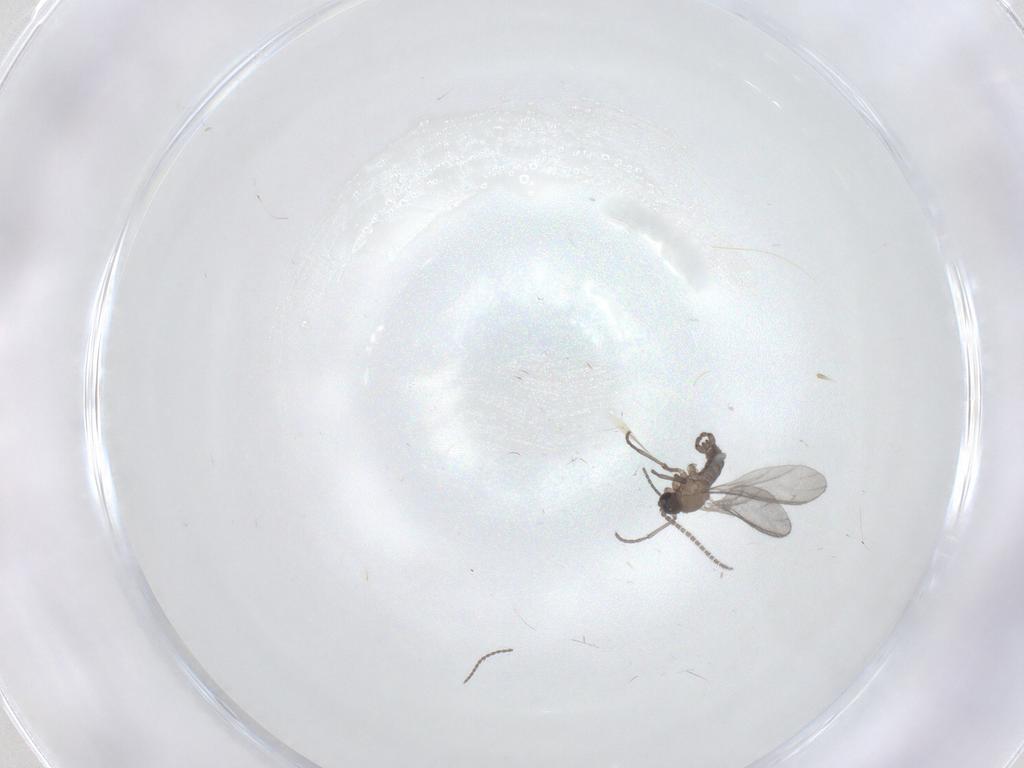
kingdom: Animalia
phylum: Arthropoda
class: Insecta
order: Diptera
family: Sciaridae
